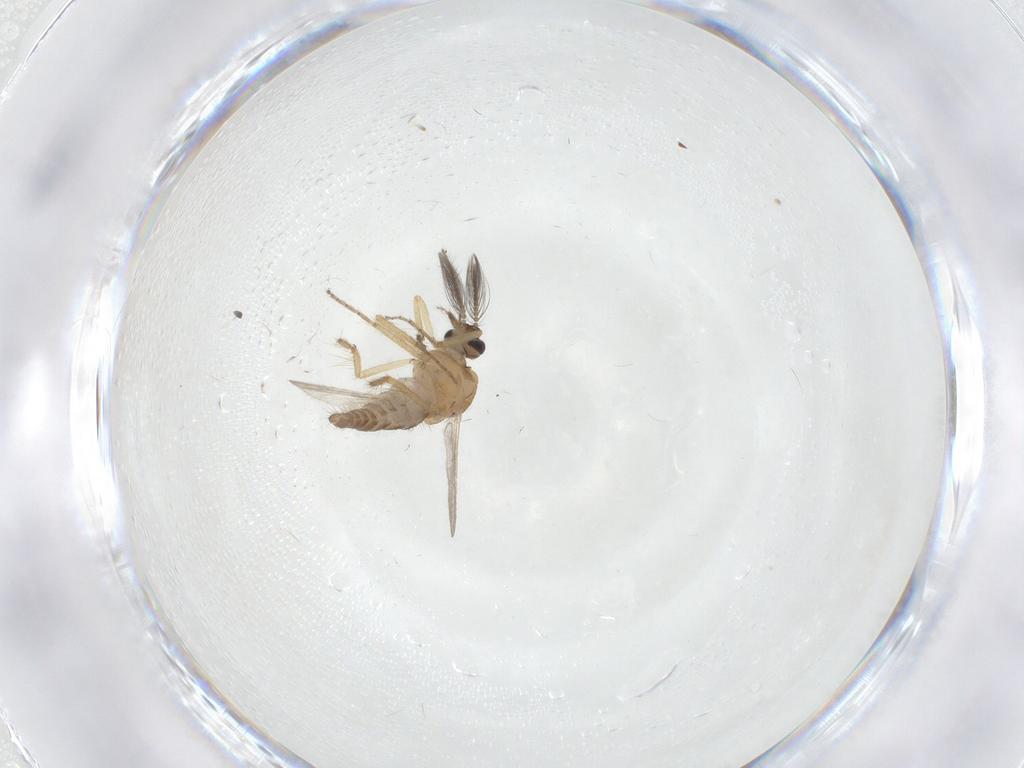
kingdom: Animalia
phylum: Arthropoda
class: Insecta
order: Diptera
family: Ceratopogonidae
